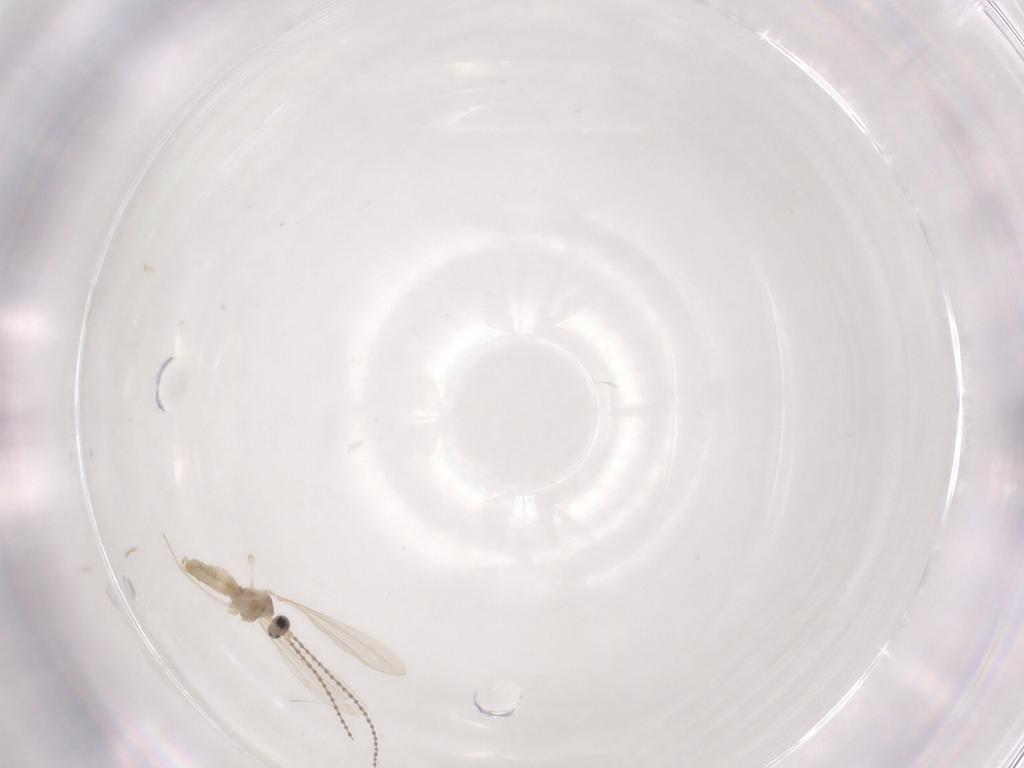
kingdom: Animalia
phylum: Arthropoda
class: Insecta
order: Diptera
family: Cecidomyiidae
